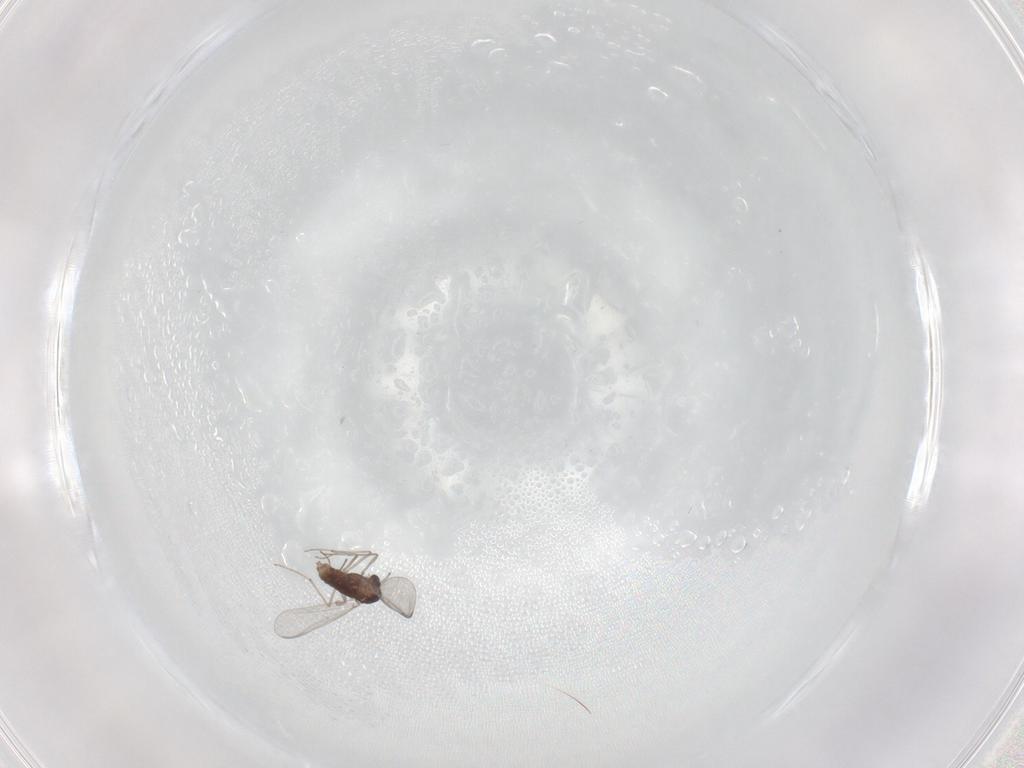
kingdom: Animalia
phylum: Arthropoda
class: Insecta
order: Diptera
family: Chironomidae
